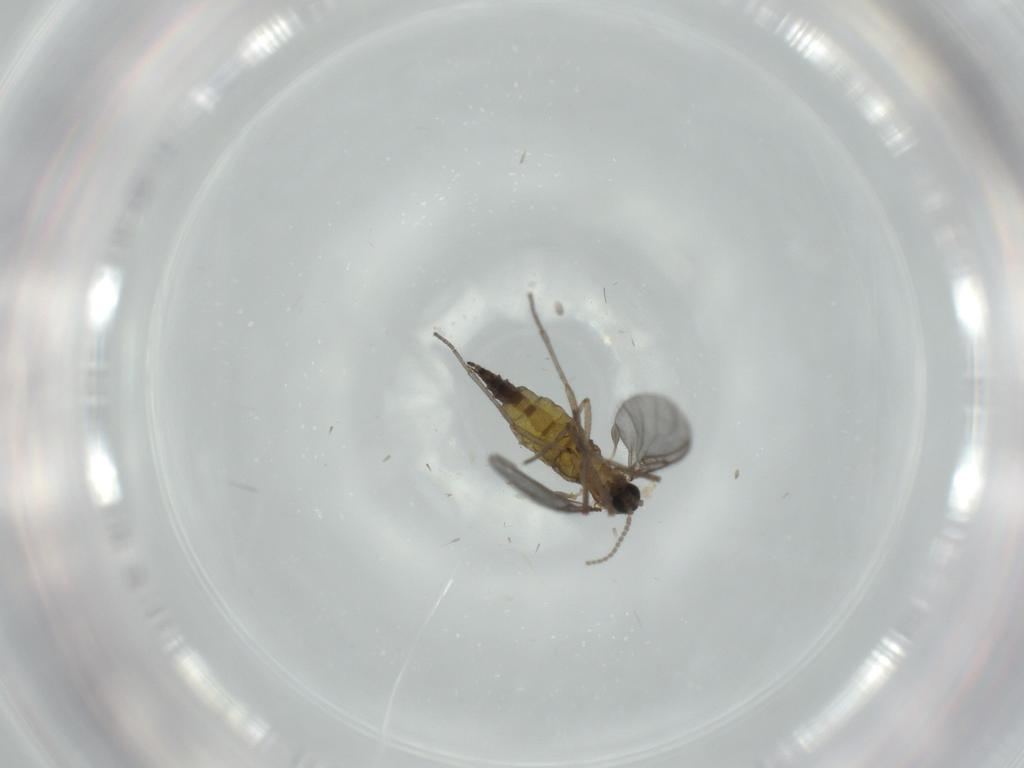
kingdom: Animalia
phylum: Arthropoda
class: Insecta
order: Diptera
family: Sciaridae
